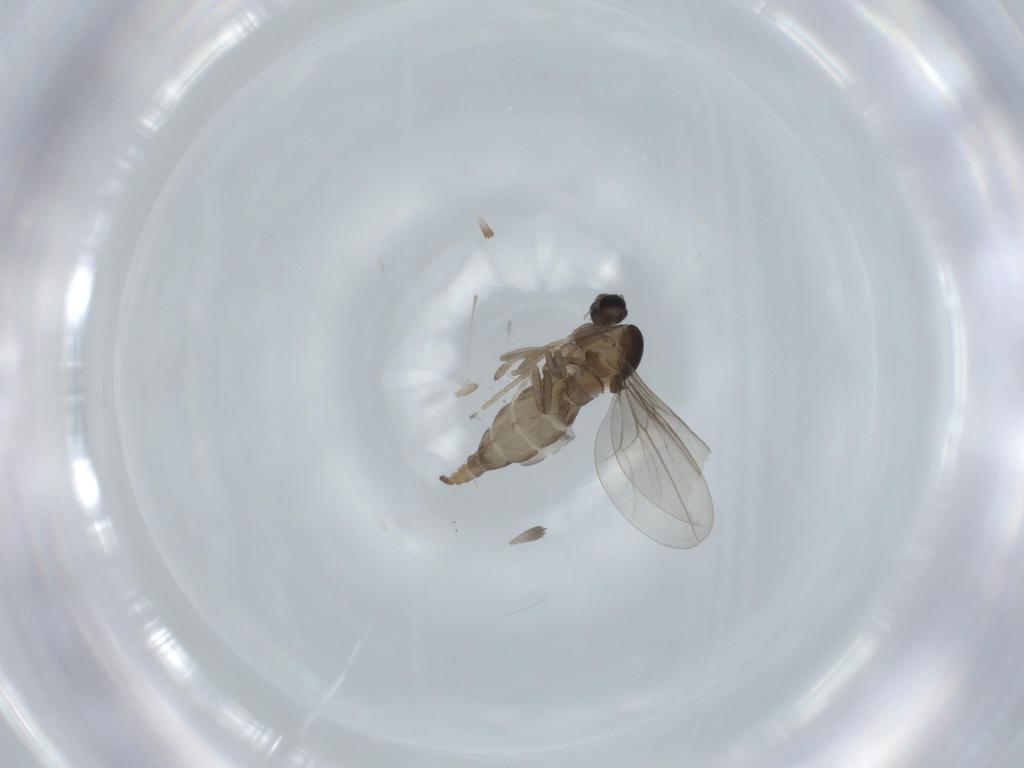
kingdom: Animalia
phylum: Arthropoda
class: Insecta
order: Diptera
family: Cecidomyiidae
